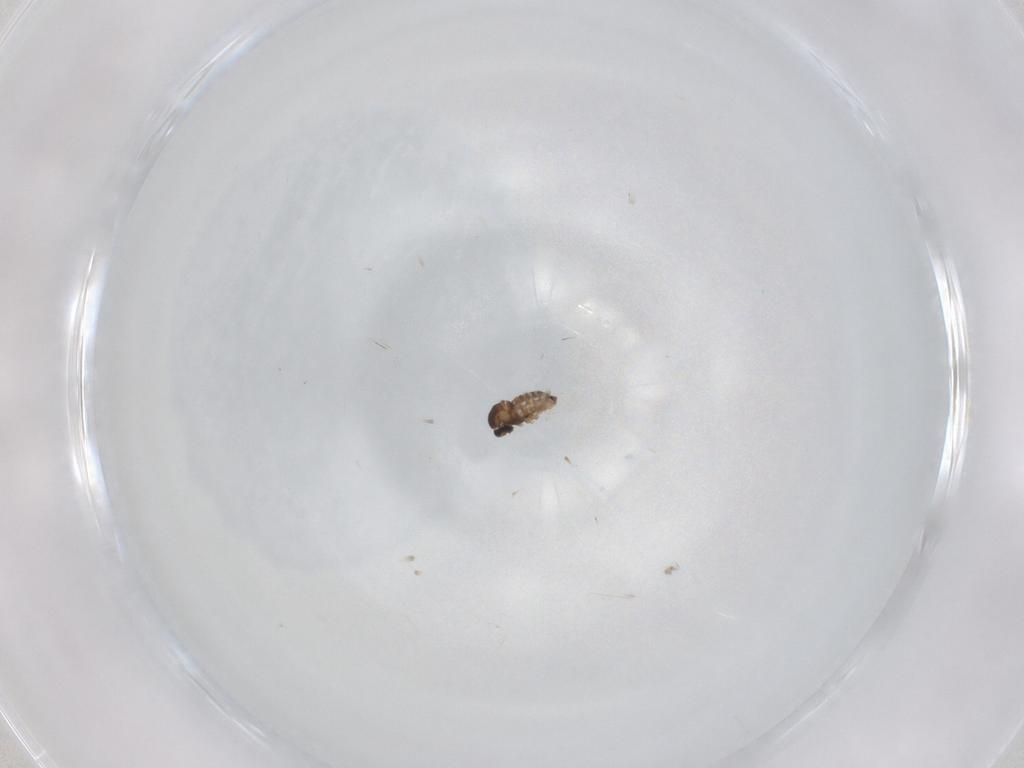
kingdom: Animalia
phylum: Arthropoda
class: Insecta
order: Diptera
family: Cecidomyiidae
